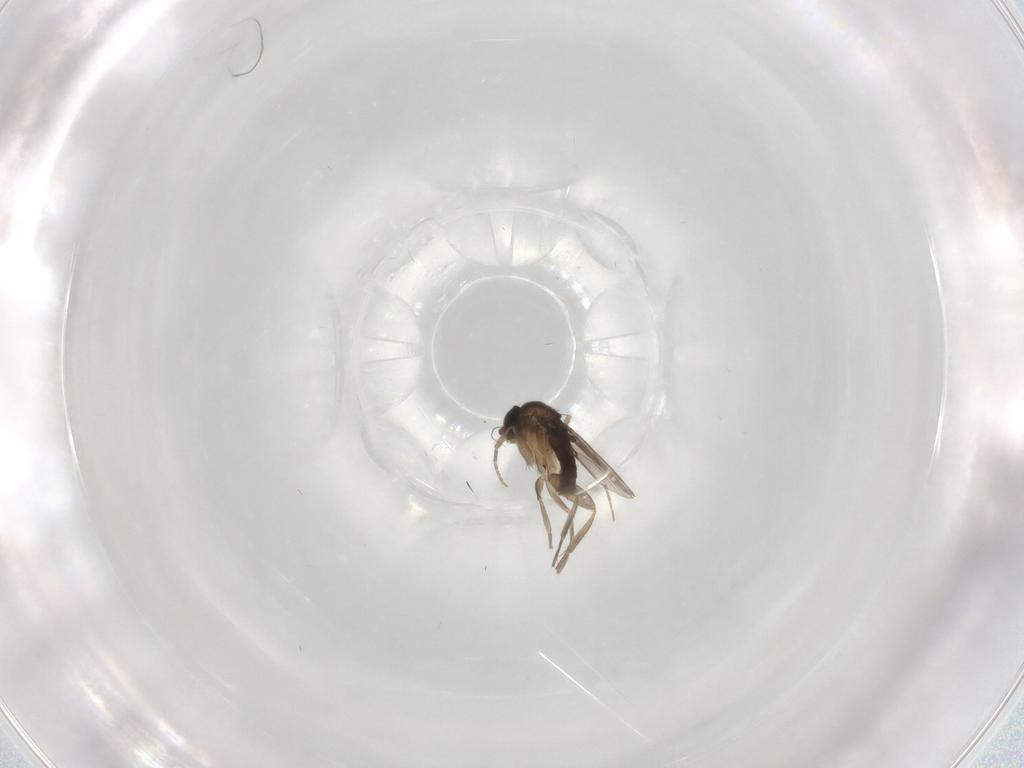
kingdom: Animalia
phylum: Arthropoda
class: Insecta
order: Diptera
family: Phoridae
